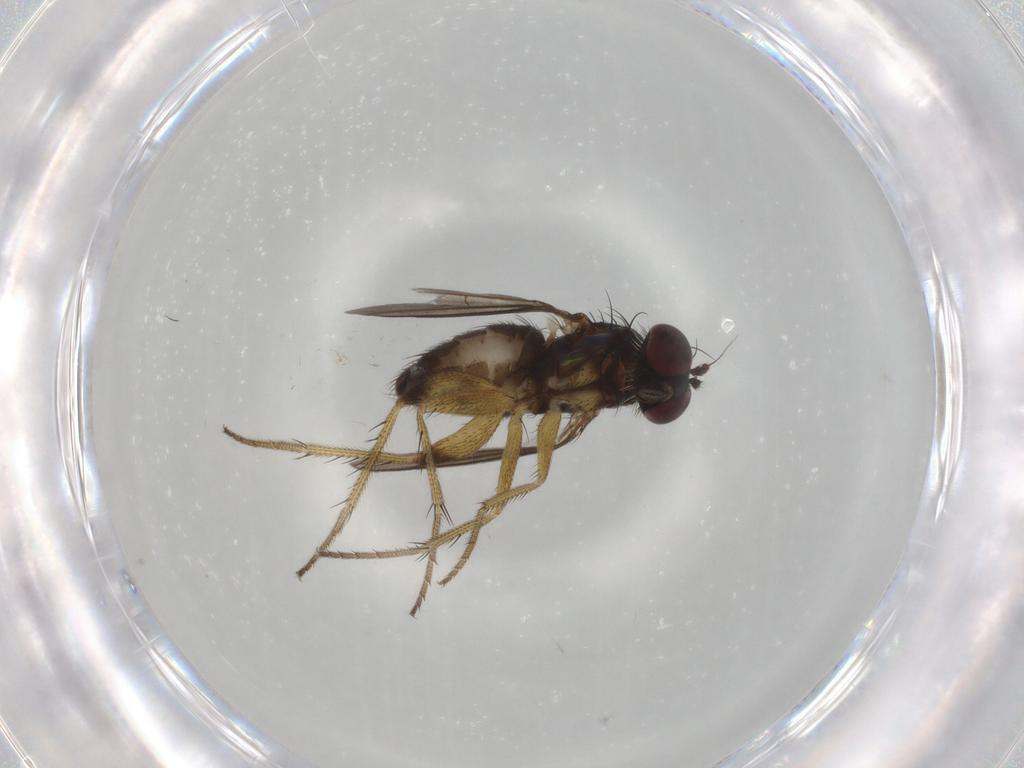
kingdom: Animalia
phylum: Arthropoda
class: Insecta
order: Diptera
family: Dolichopodidae
